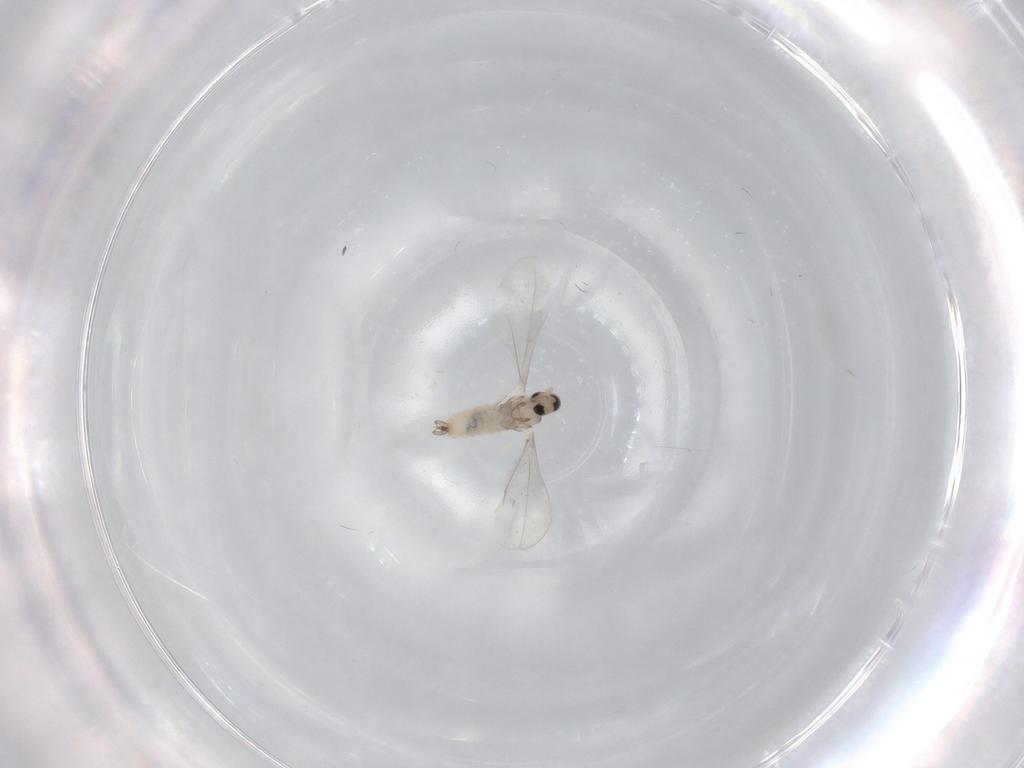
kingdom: Animalia
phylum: Arthropoda
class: Insecta
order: Diptera
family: Cecidomyiidae
